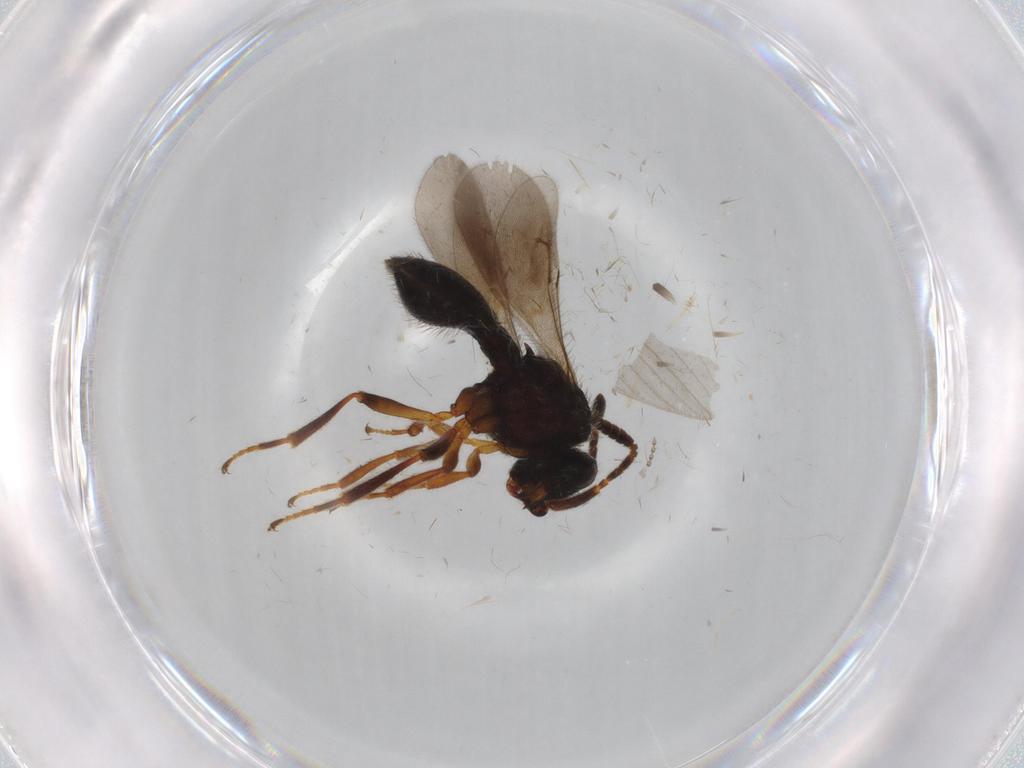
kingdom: Animalia
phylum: Arthropoda
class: Insecta
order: Hymenoptera
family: Scelionidae
